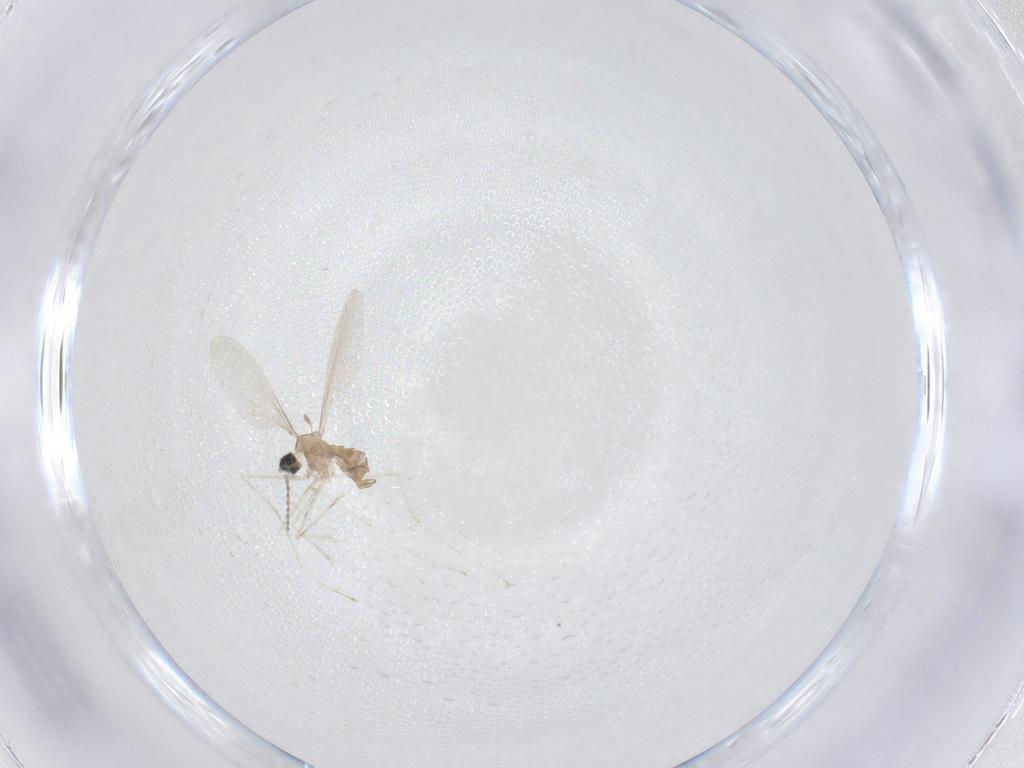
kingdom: Animalia
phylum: Arthropoda
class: Insecta
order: Diptera
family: Cecidomyiidae
